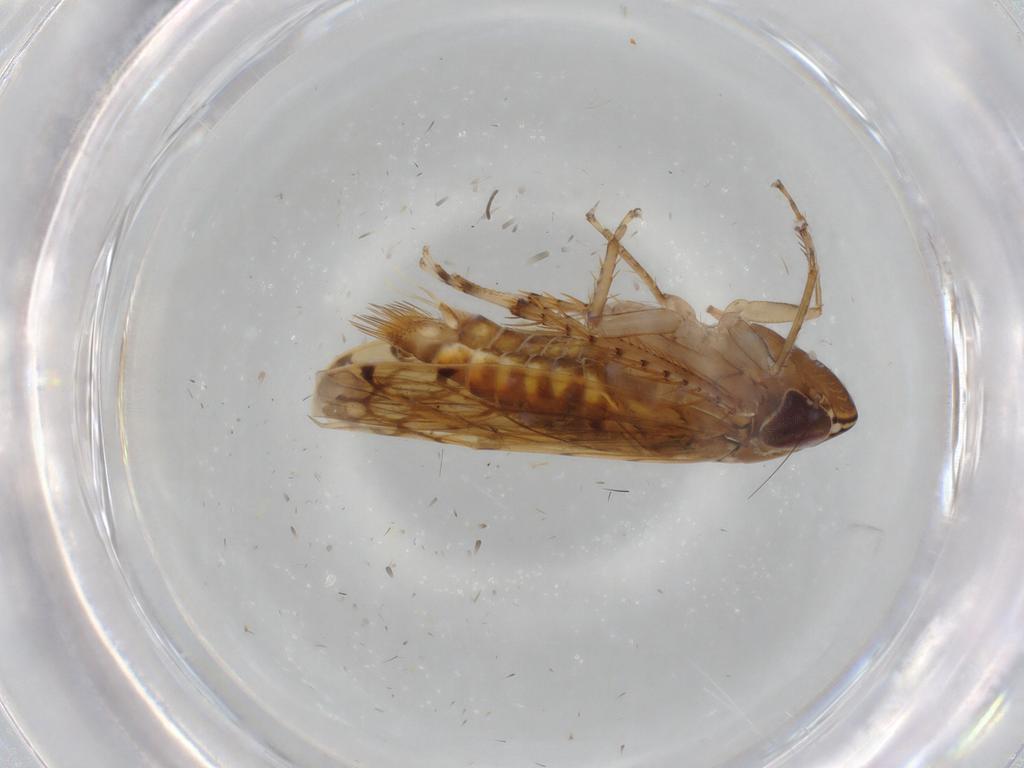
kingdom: Animalia
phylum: Arthropoda
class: Insecta
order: Hemiptera
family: Cicadellidae
